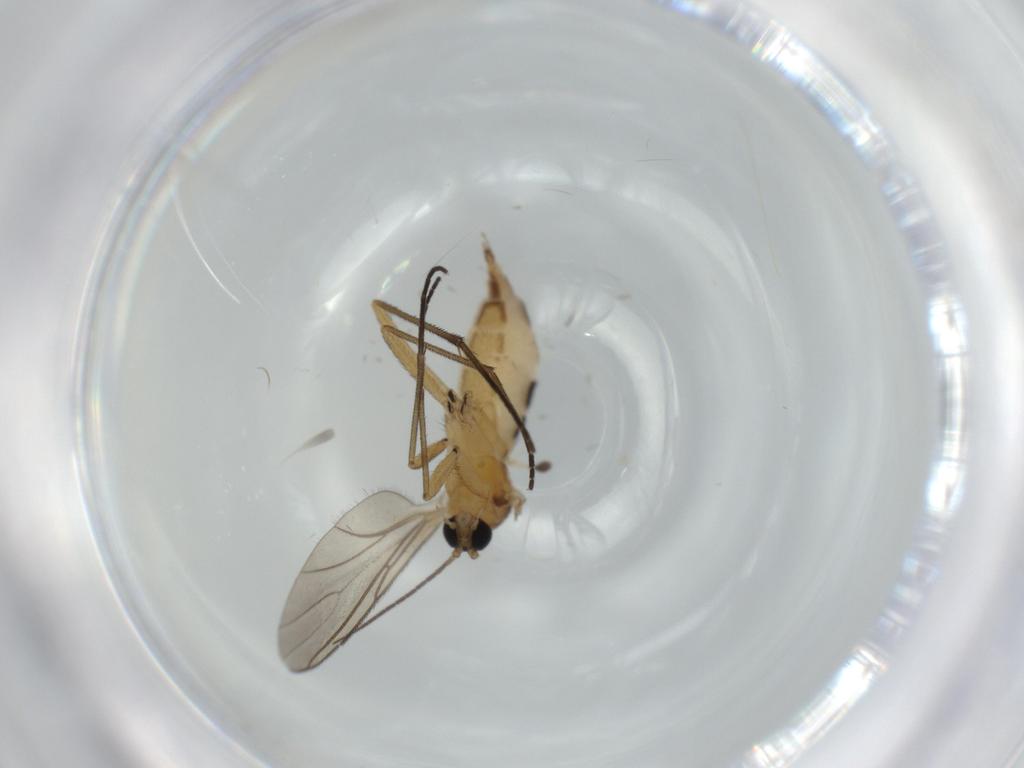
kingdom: Animalia
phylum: Arthropoda
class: Insecta
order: Diptera
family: Sciaridae
